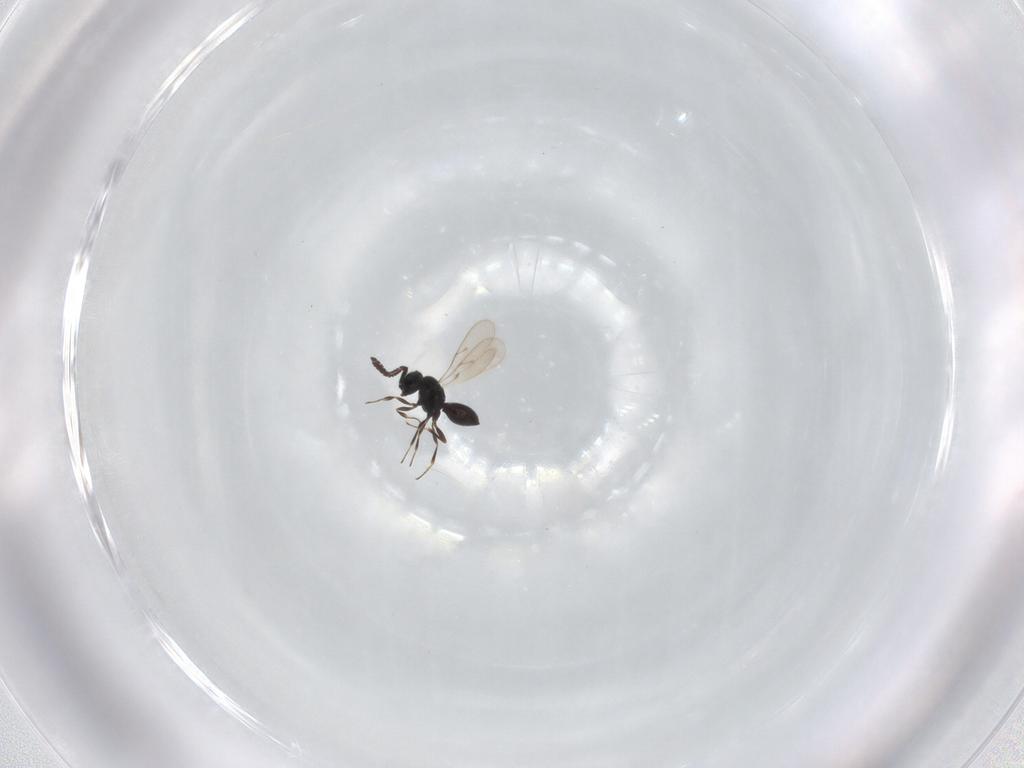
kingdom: Animalia
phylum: Arthropoda
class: Insecta
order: Hymenoptera
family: Scelionidae
